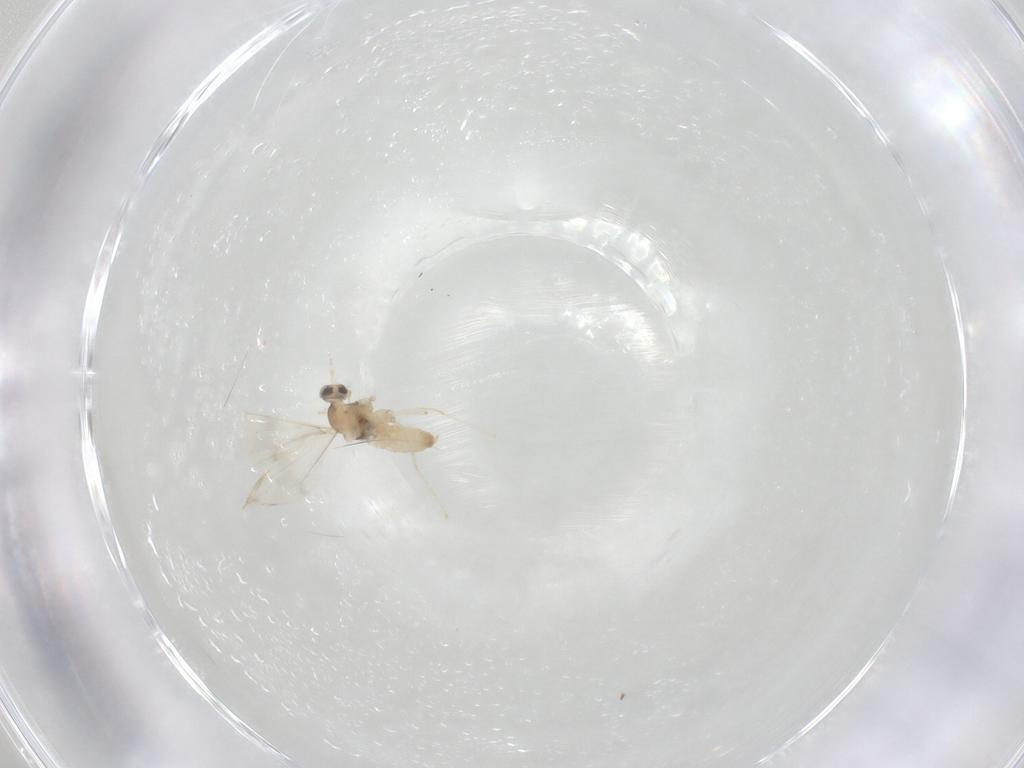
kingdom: Animalia
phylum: Arthropoda
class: Insecta
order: Diptera
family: Cecidomyiidae
